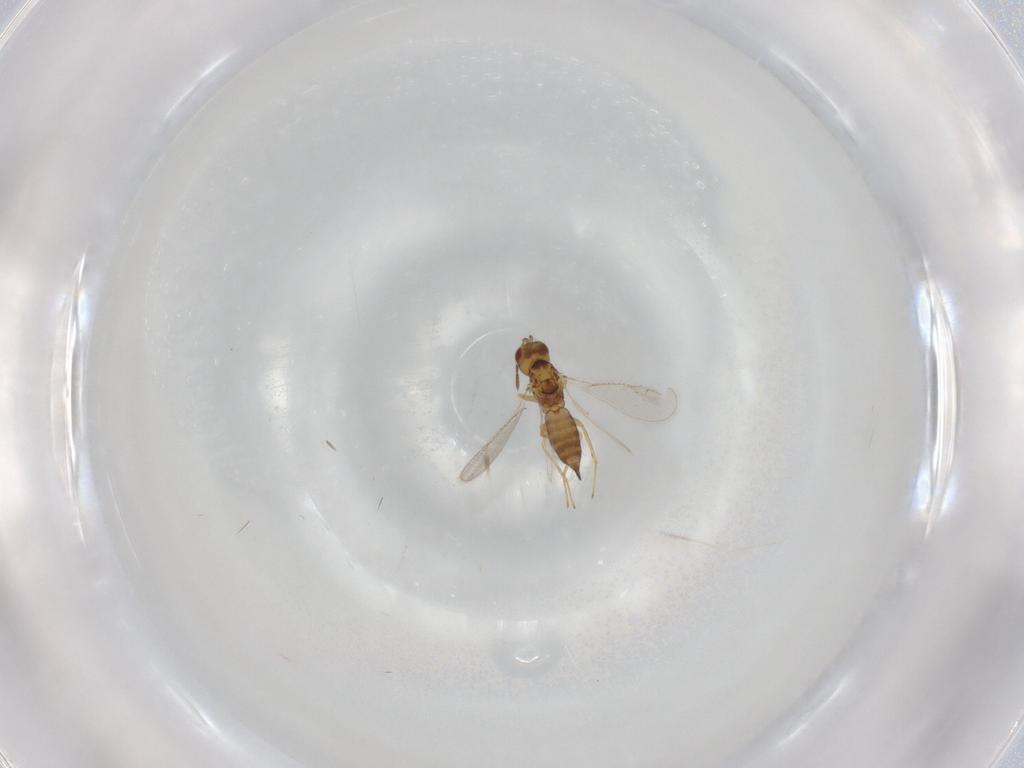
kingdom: Animalia
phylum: Arthropoda
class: Insecta
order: Hymenoptera
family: Eulophidae
